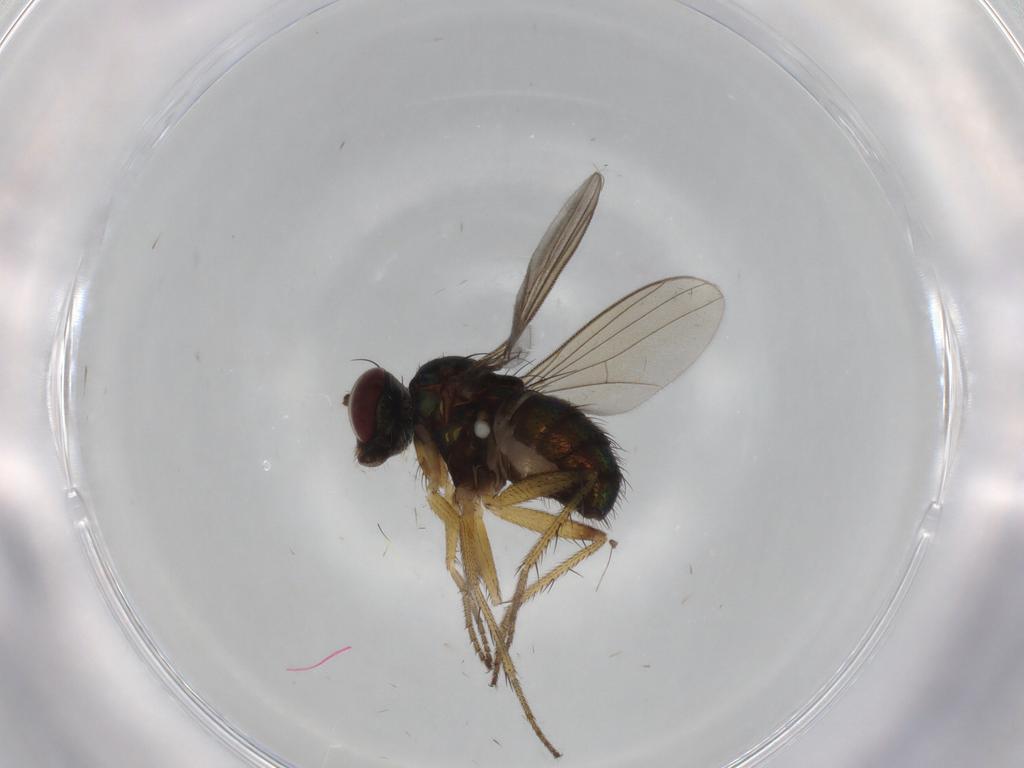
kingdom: Animalia
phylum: Arthropoda
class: Insecta
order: Diptera
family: Dolichopodidae
